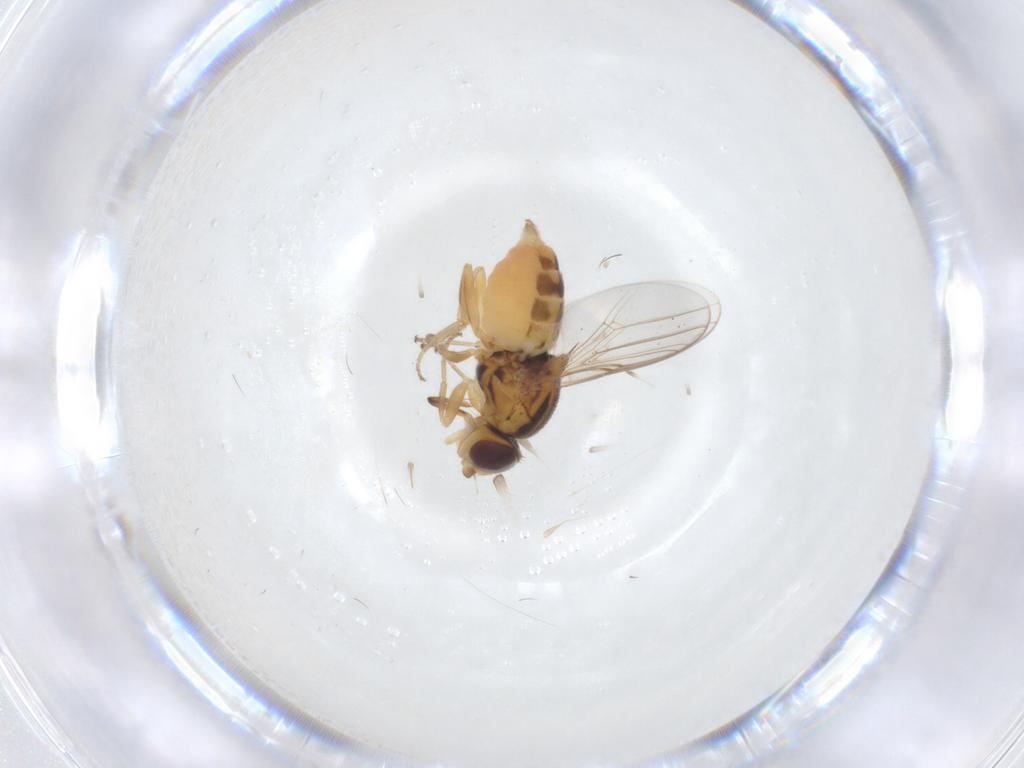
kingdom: Animalia
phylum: Arthropoda
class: Insecta
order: Diptera
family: Chloropidae
